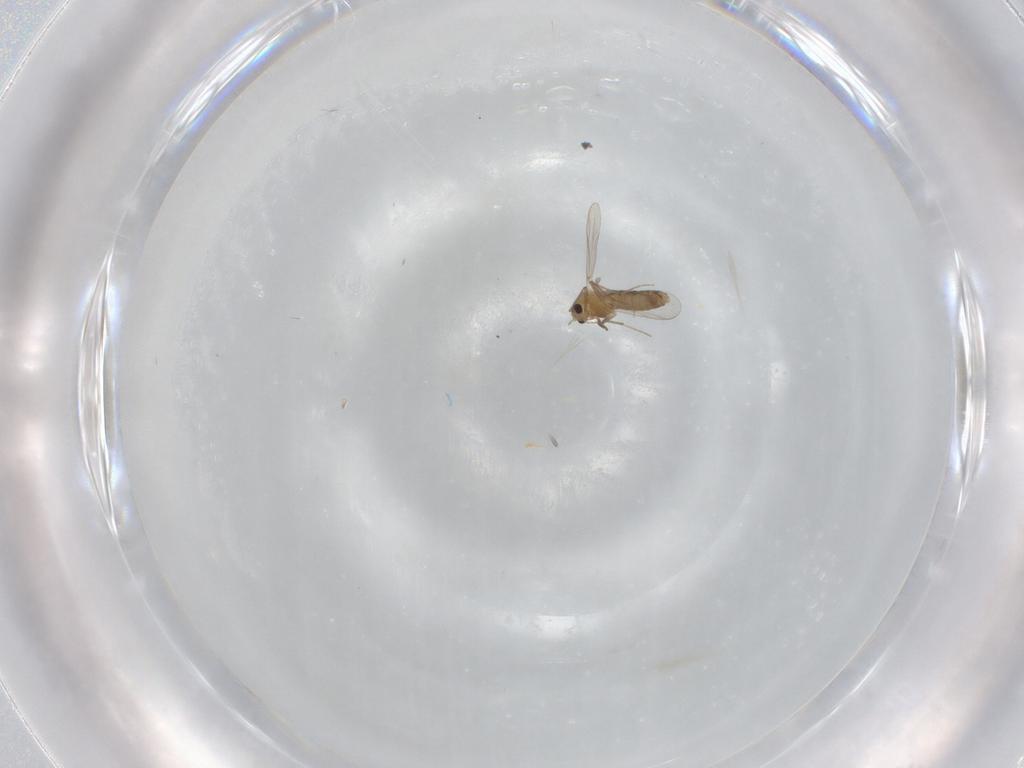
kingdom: Animalia
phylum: Arthropoda
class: Insecta
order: Diptera
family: Chironomidae
